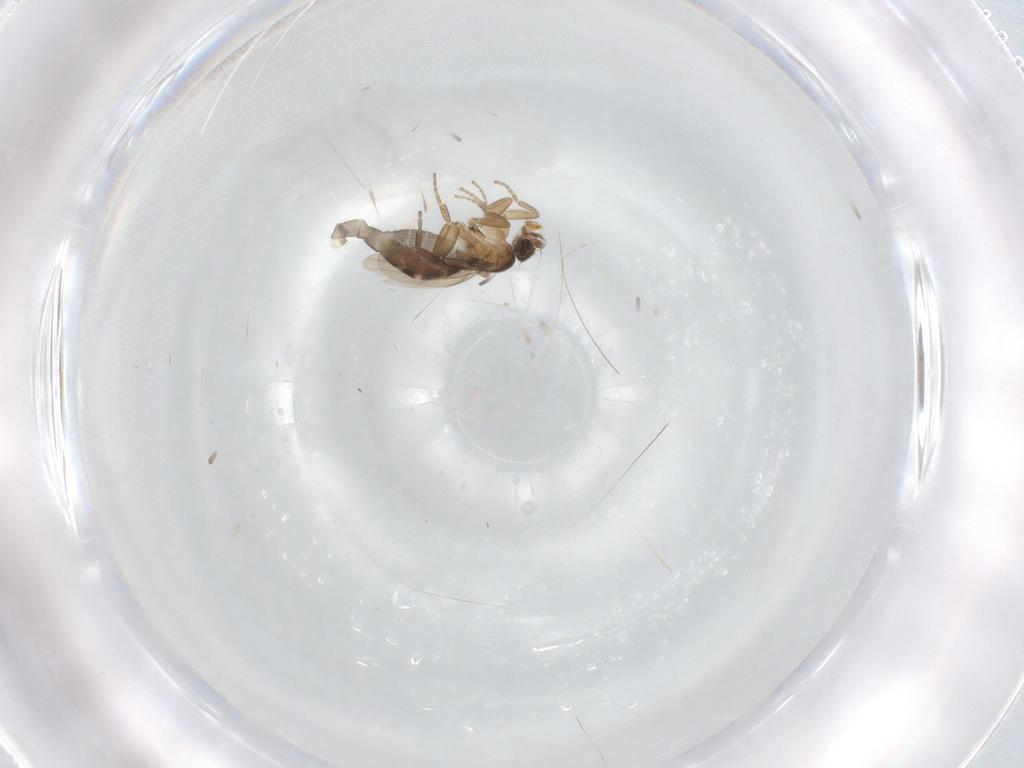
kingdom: Animalia
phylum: Arthropoda
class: Insecta
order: Diptera
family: Phoridae
